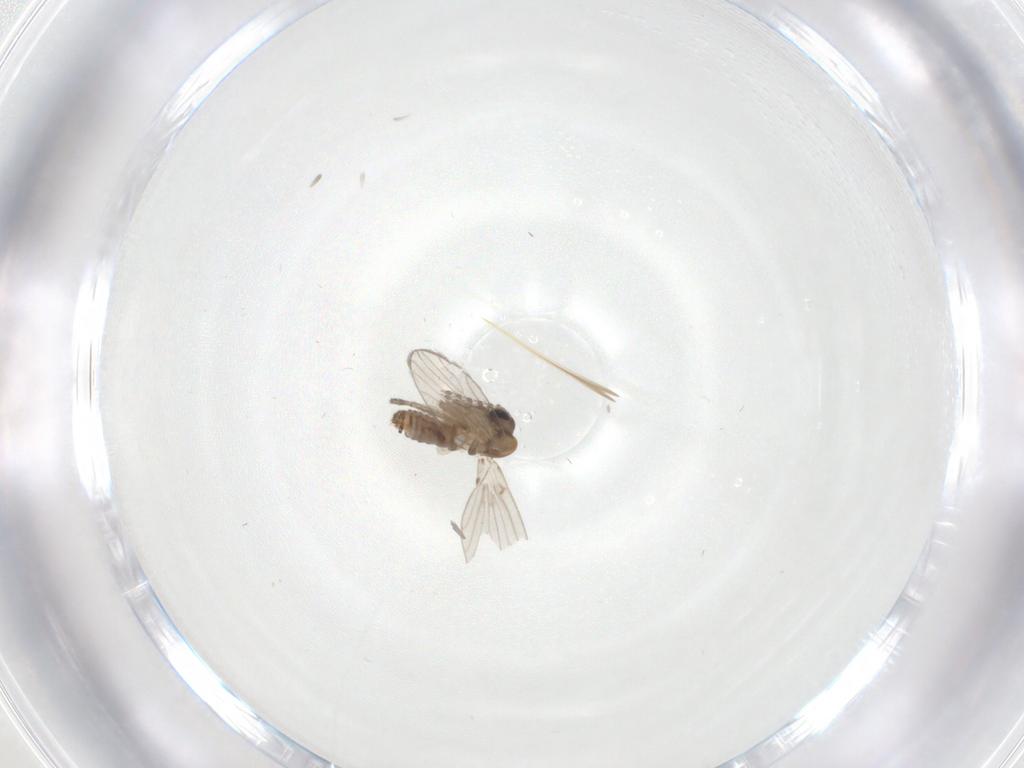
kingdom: Animalia
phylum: Arthropoda
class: Insecta
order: Diptera
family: Psychodidae
